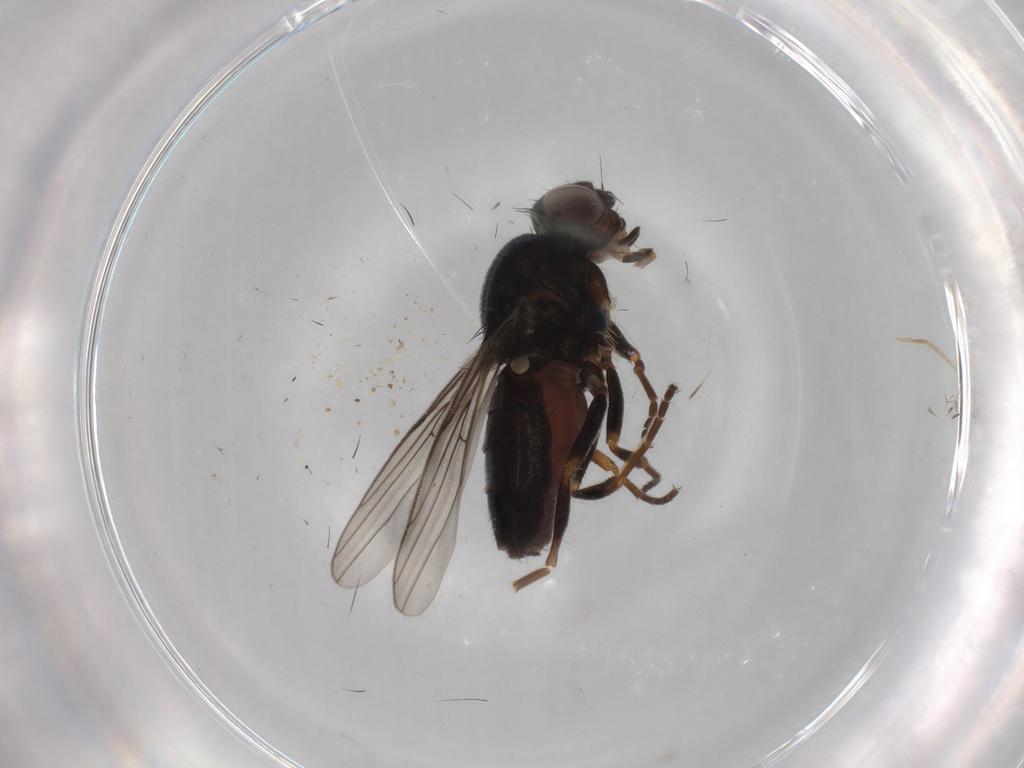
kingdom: Animalia
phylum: Arthropoda
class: Insecta
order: Diptera
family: Chloropidae
